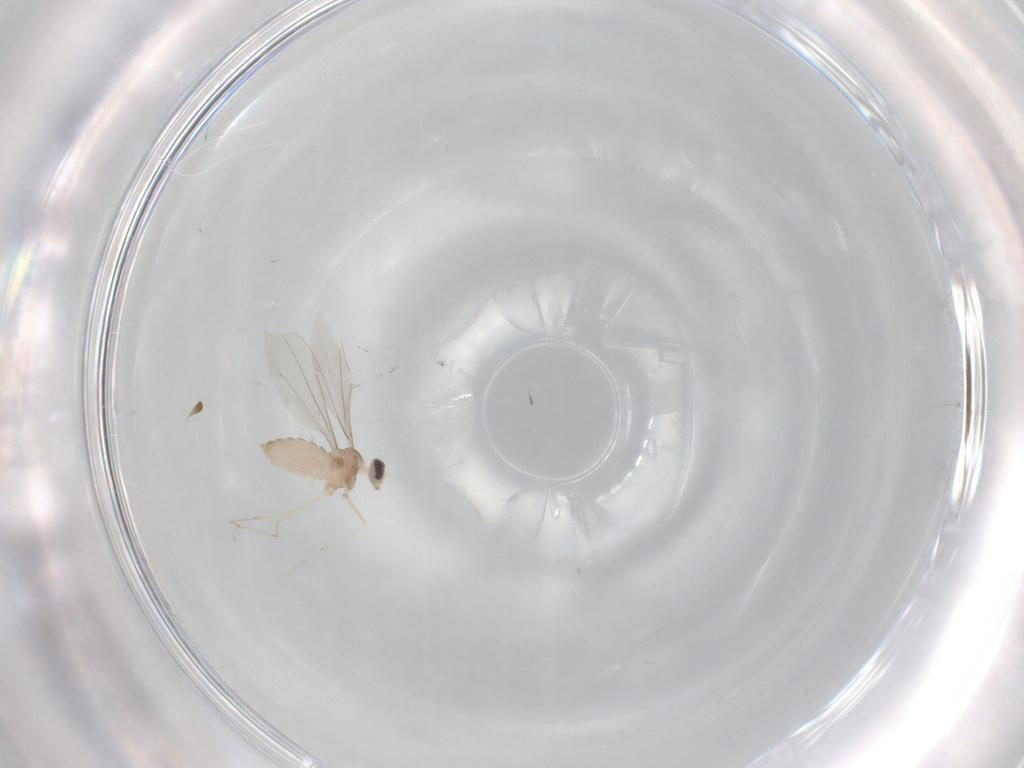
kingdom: Animalia
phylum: Arthropoda
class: Insecta
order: Diptera
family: Cecidomyiidae
